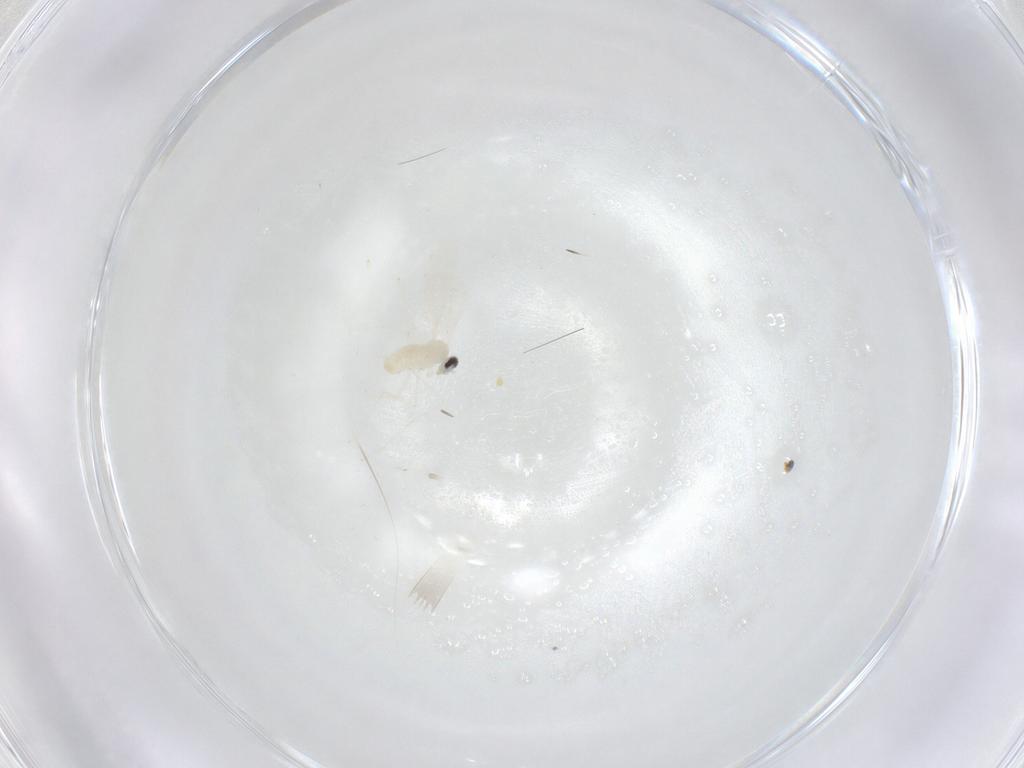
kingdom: Animalia
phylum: Arthropoda
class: Insecta
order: Diptera
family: Cecidomyiidae
